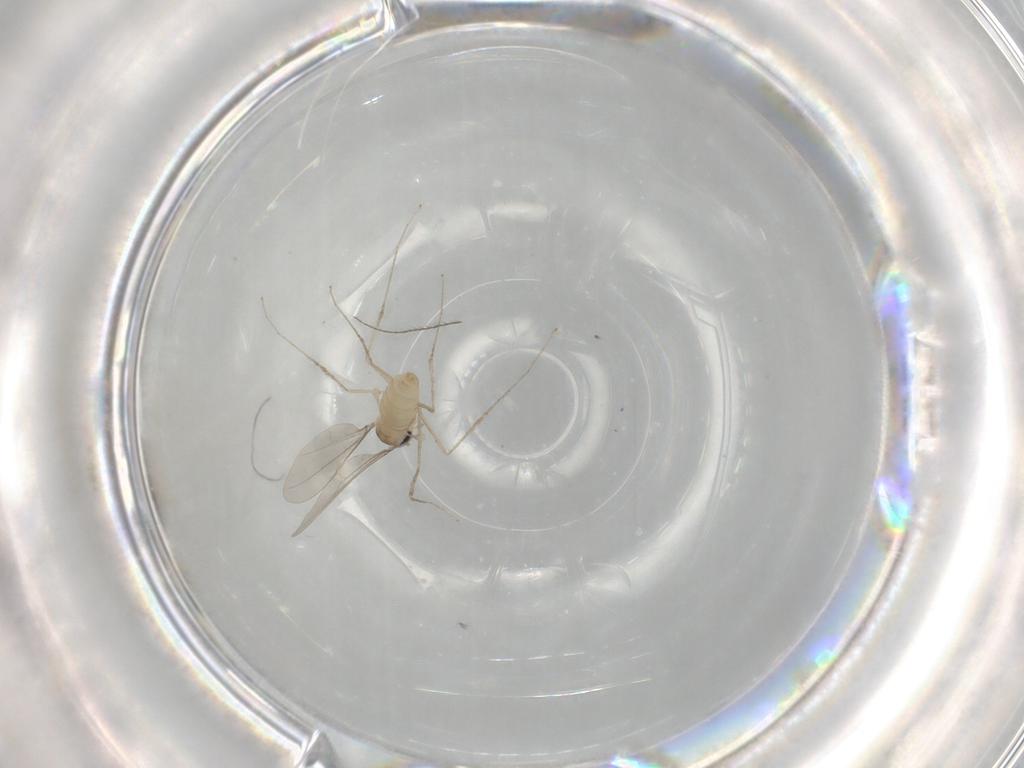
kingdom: Animalia
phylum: Arthropoda
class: Insecta
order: Diptera
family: Cecidomyiidae
